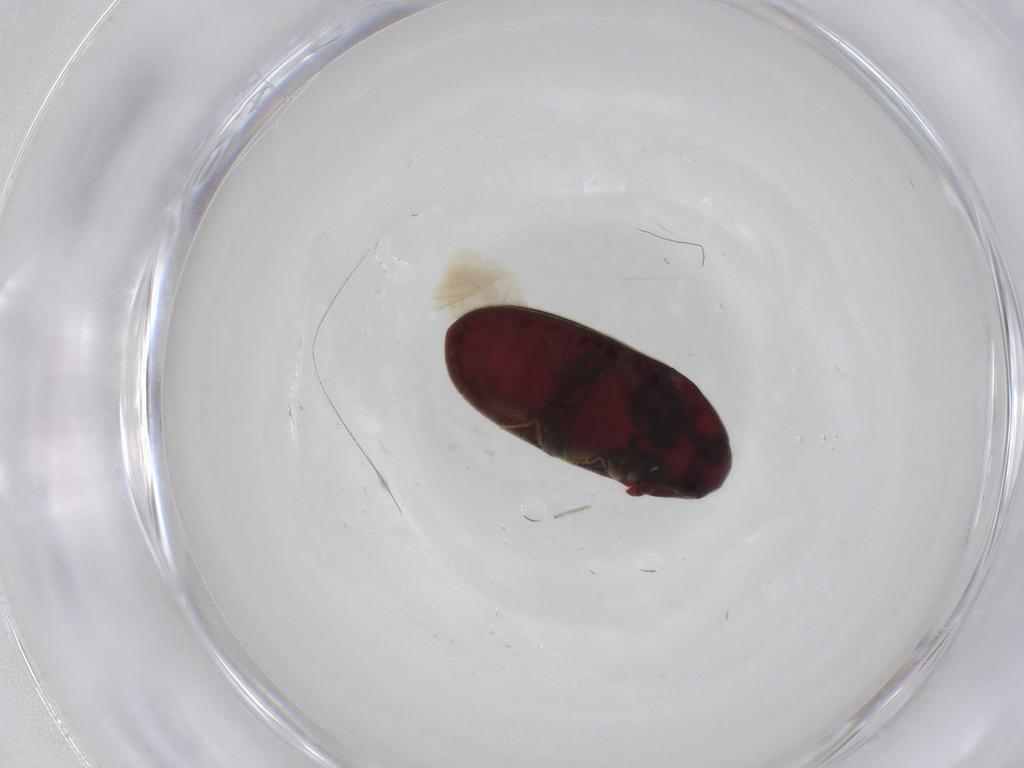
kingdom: Animalia
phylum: Arthropoda
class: Insecta
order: Coleoptera
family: Throscidae
